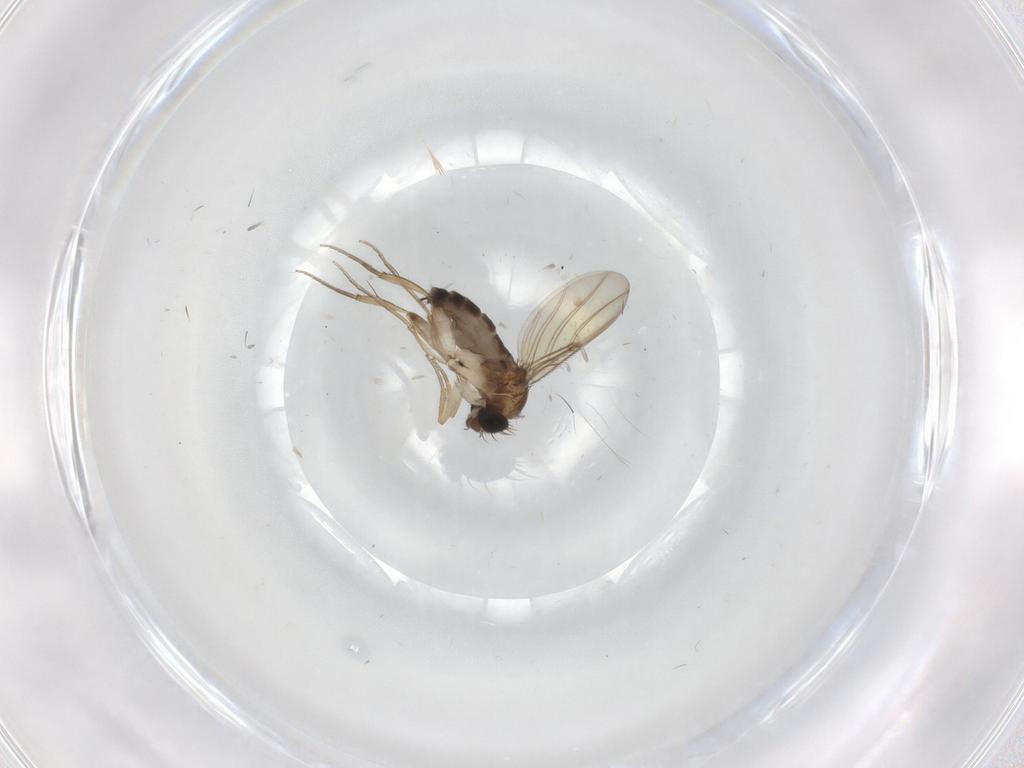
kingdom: Animalia
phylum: Arthropoda
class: Insecta
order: Diptera
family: Phoridae
